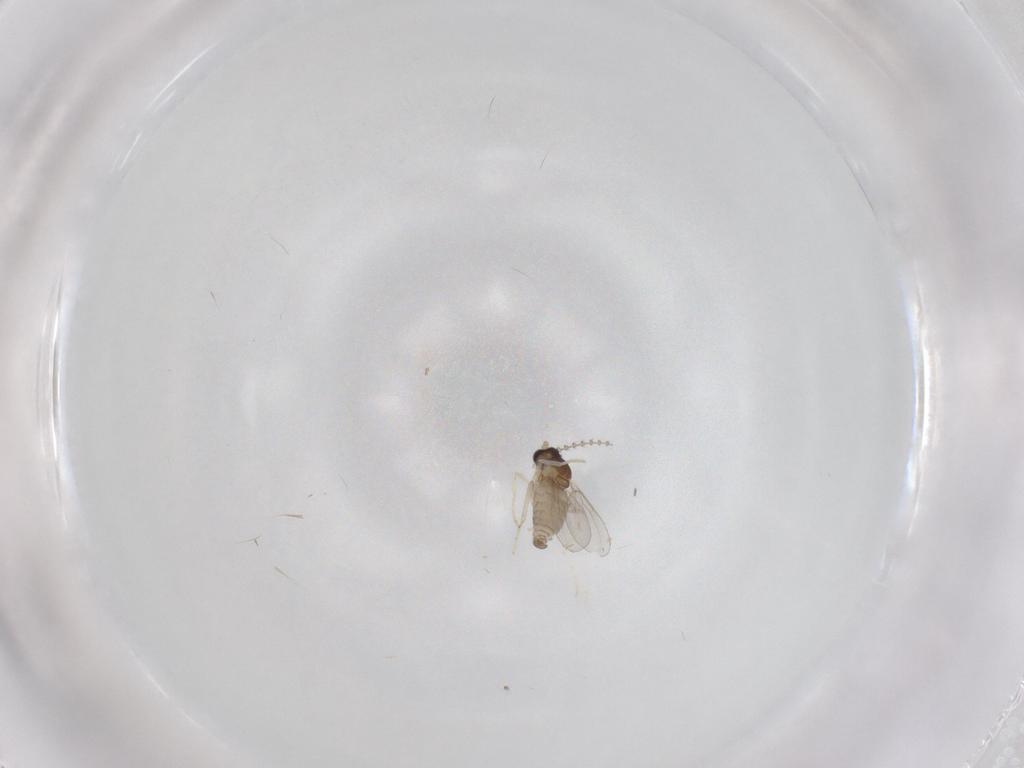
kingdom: Animalia
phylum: Arthropoda
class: Insecta
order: Diptera
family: Cecidomyiidae
